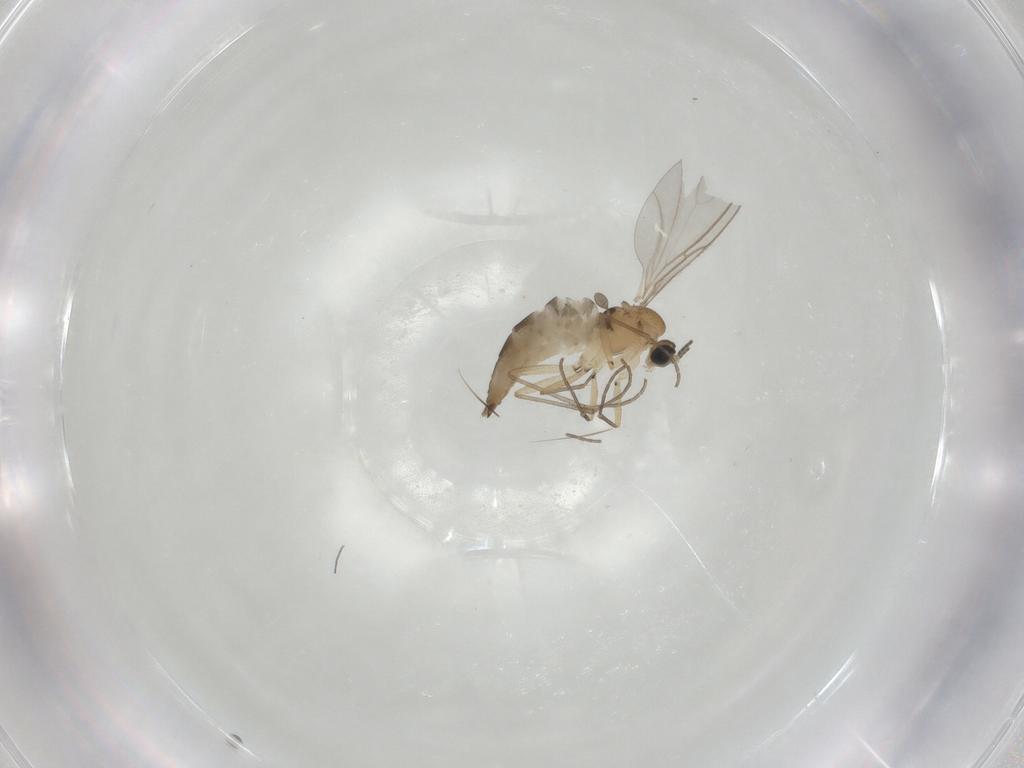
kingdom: Animalia
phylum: Arthropoda
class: Insecta
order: Diptera
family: Sciaridae
